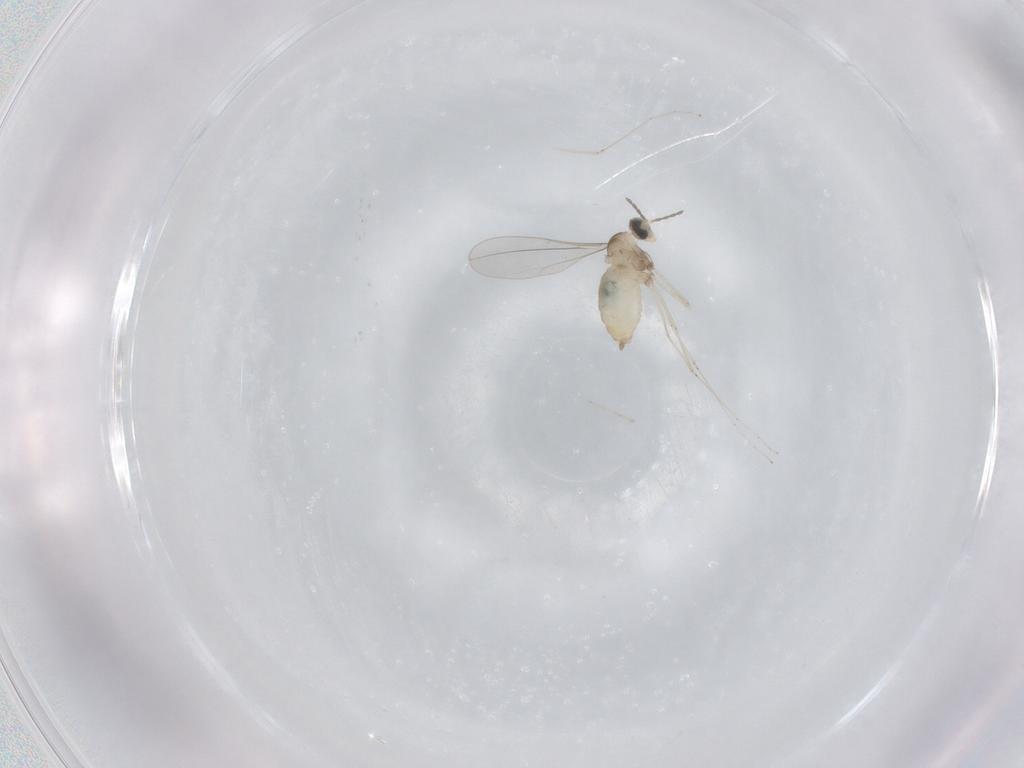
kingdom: Animalia
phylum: Arthropoda
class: Insecta
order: Diptera
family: Cecidomyiidae
